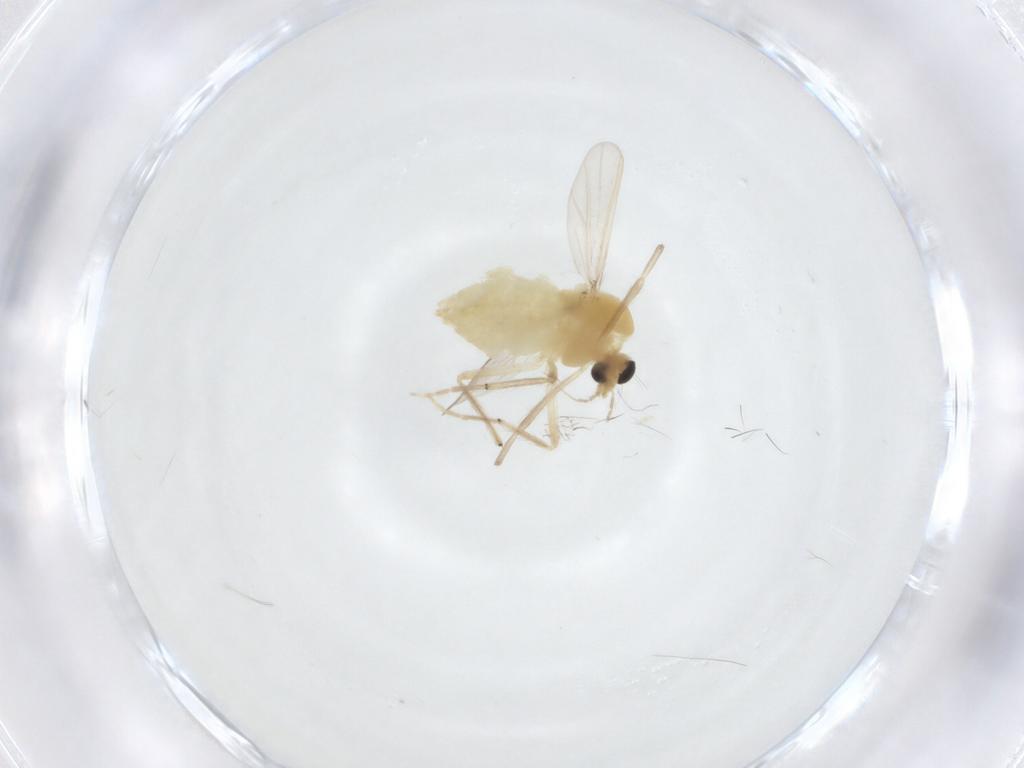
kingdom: Animalia
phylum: Arthropoda
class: Insecta
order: Diptera
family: Chironomidae
